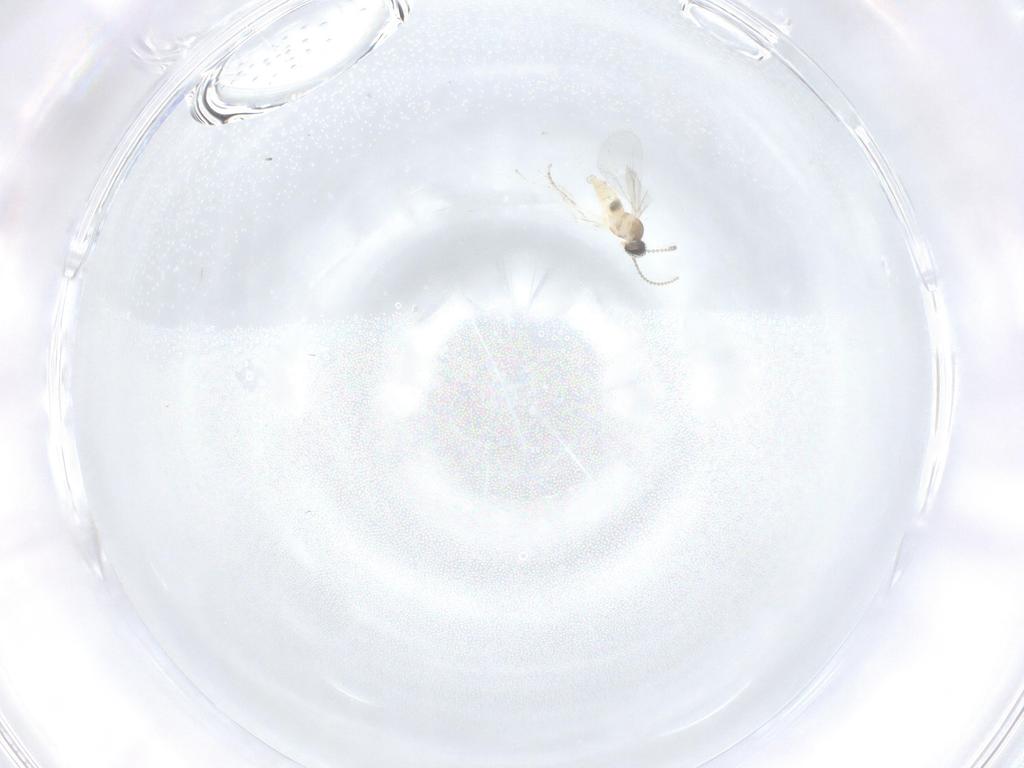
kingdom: Animalia
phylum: Arthropoda
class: Insecta
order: Diptera
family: Cecidomyiidae
